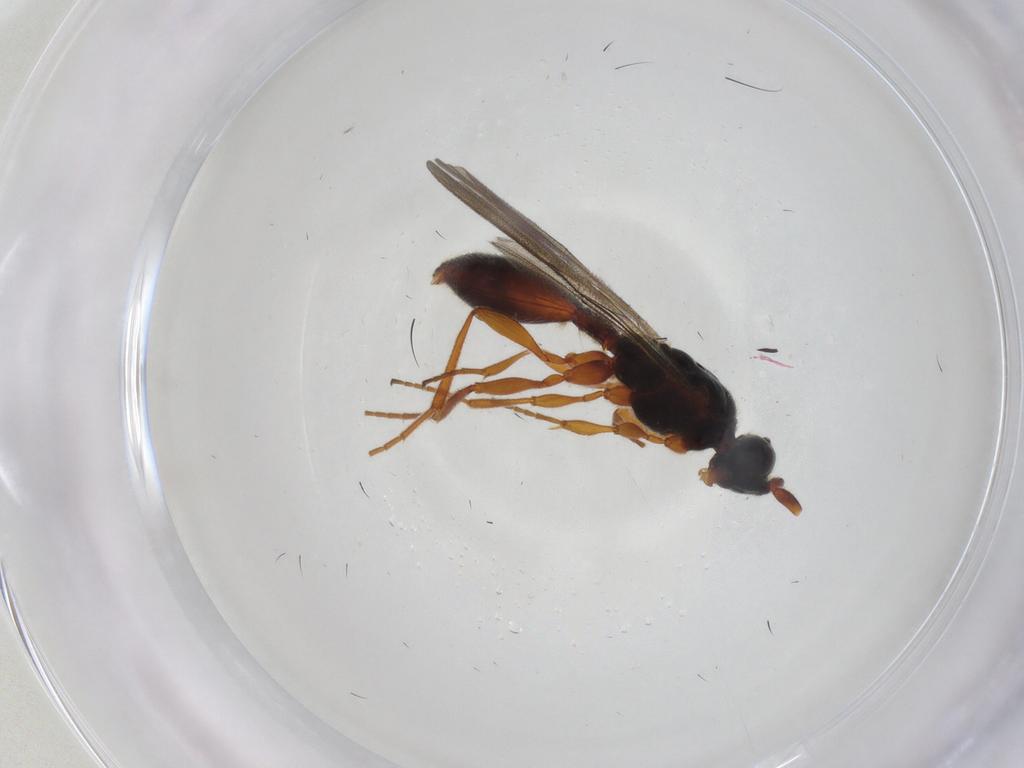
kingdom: Animalia
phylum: Arthropoda
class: Insecta
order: Hymenoptera
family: Diapriidae
